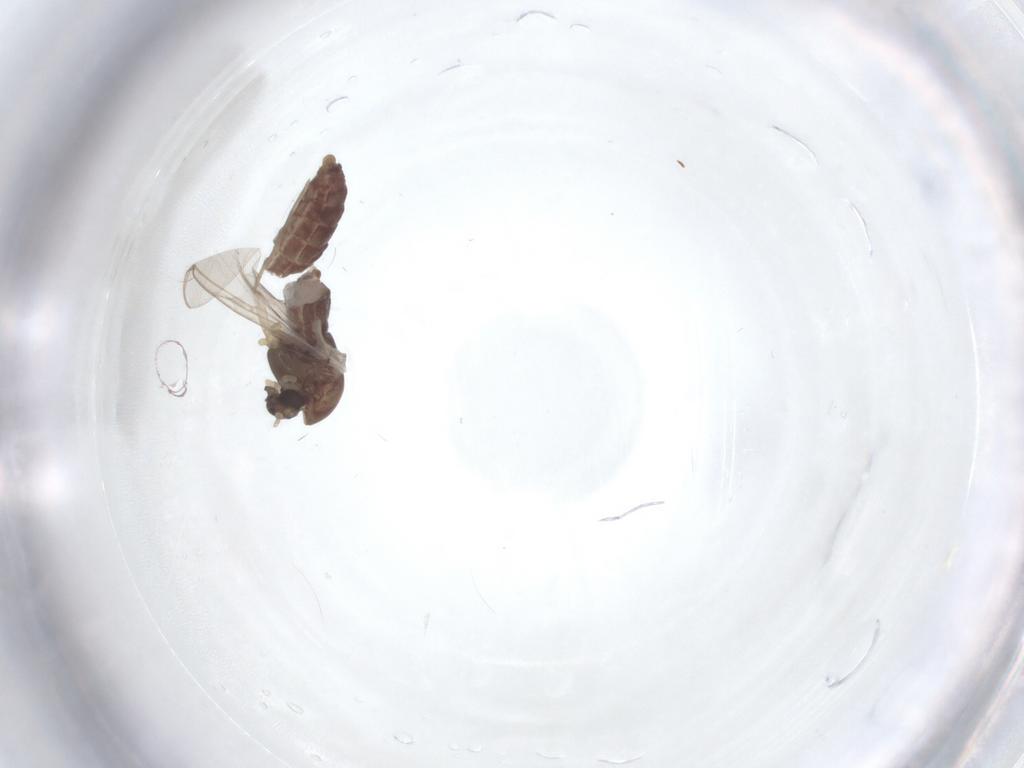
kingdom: Animalia
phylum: Arthropoda
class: Insecta
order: Diptera
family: Chironomidae
